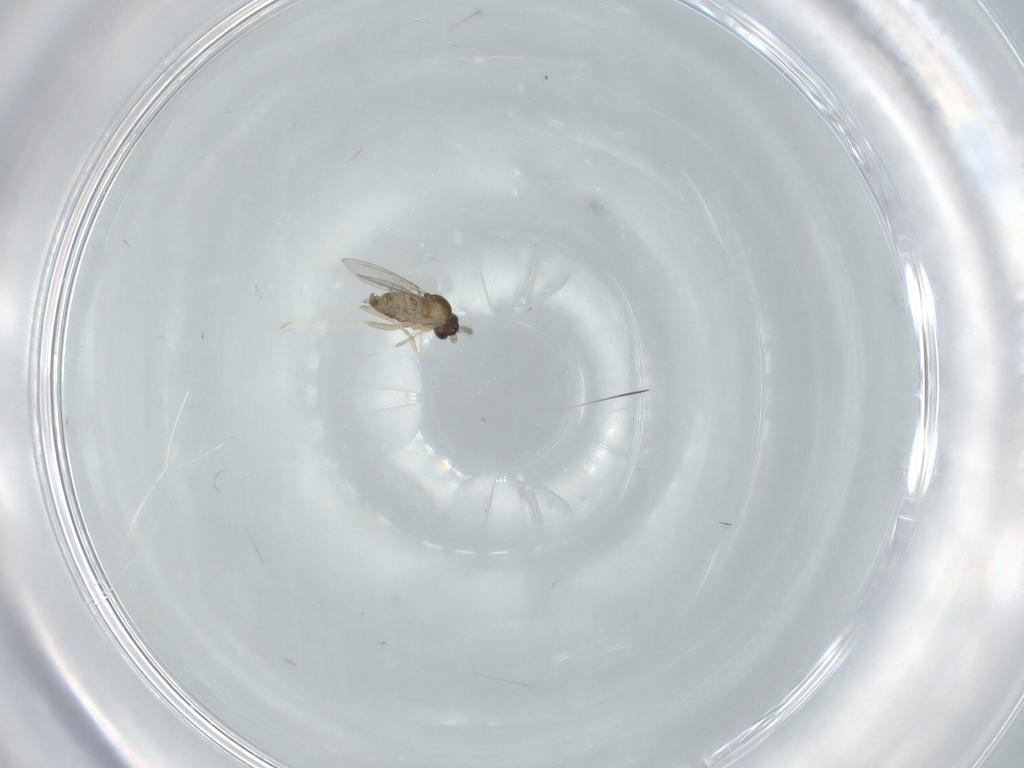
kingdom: Animalia
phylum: Arthropoda
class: Insecta
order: Diptera
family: Cecidomyiidae
